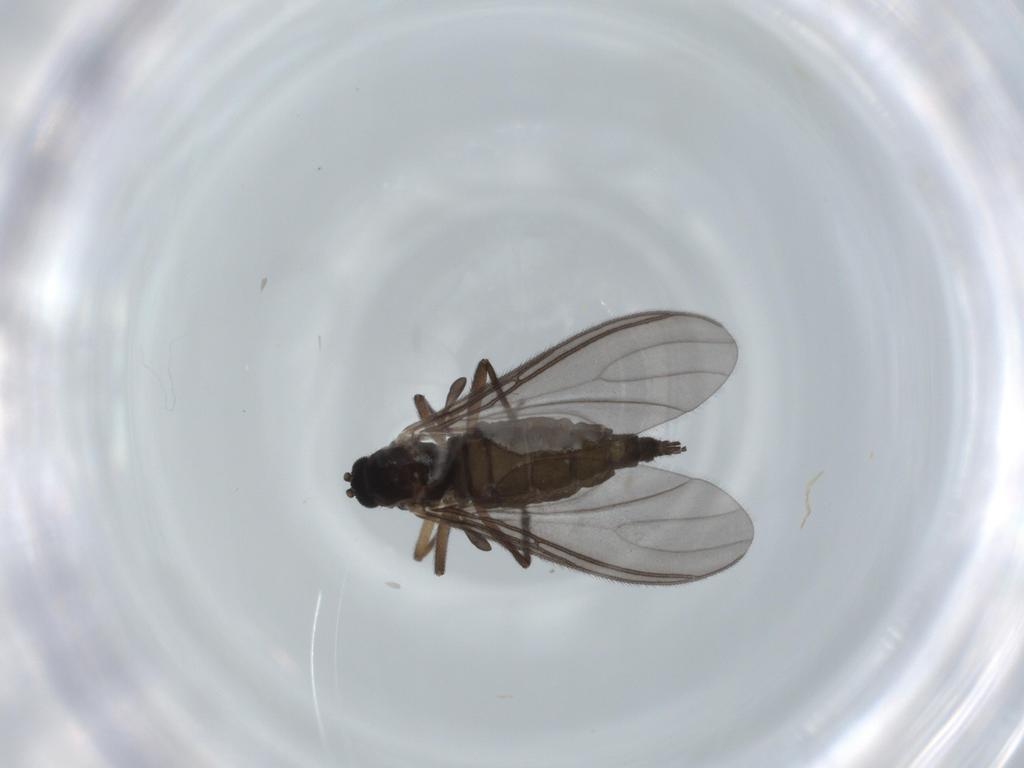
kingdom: Animalia
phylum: Arthropoda
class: Insecta
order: Diptera
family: Sciaridae
